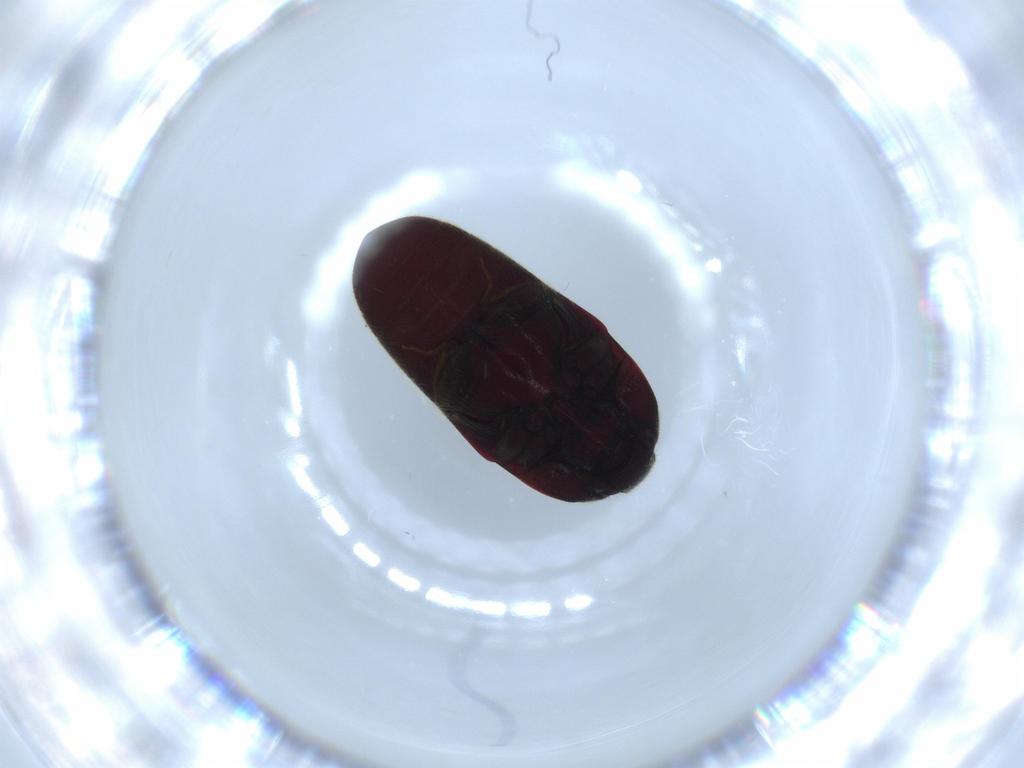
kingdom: Animalia
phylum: Arthropoda
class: Insecta
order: Coleoptera
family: Throscidae
